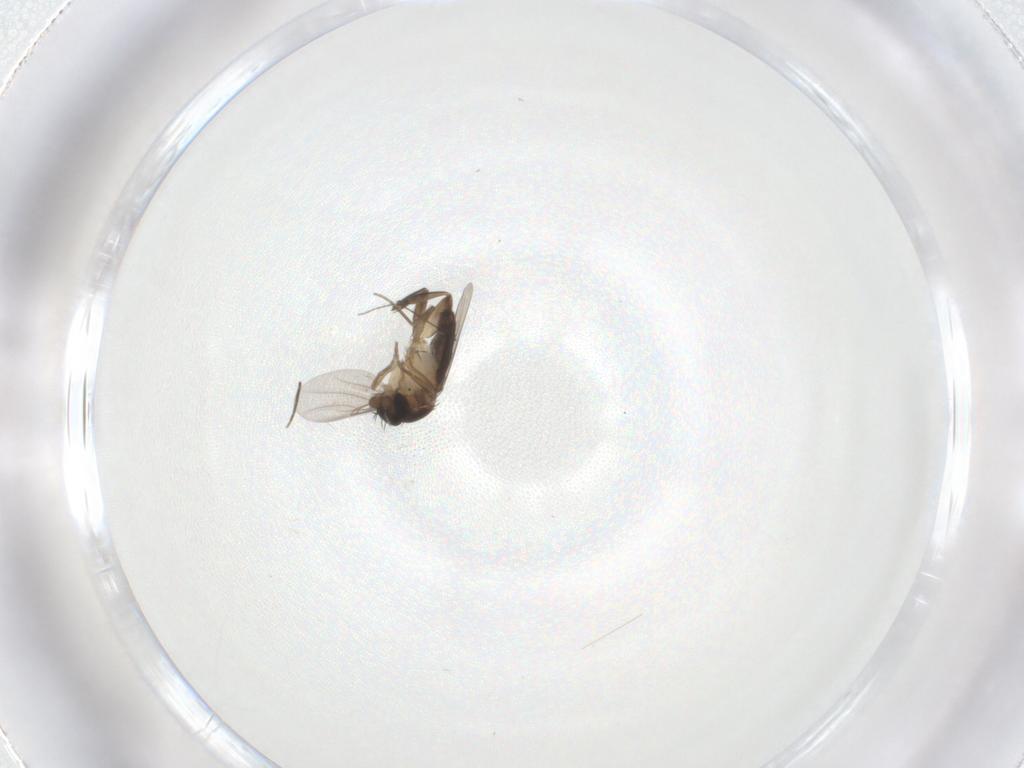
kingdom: Animalia
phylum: Arthropoda
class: Insecta
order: Diptera
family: Phoridae
